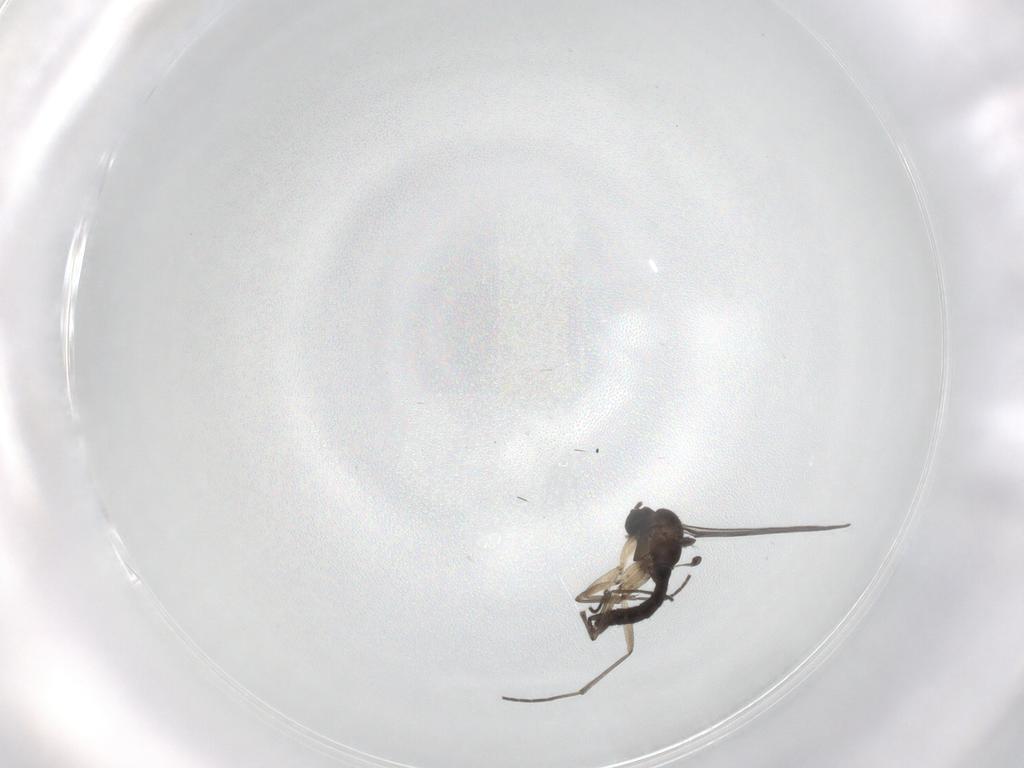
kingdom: Animalia
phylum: Arthropoda
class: Insecta
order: Diptera
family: Sciaridae
